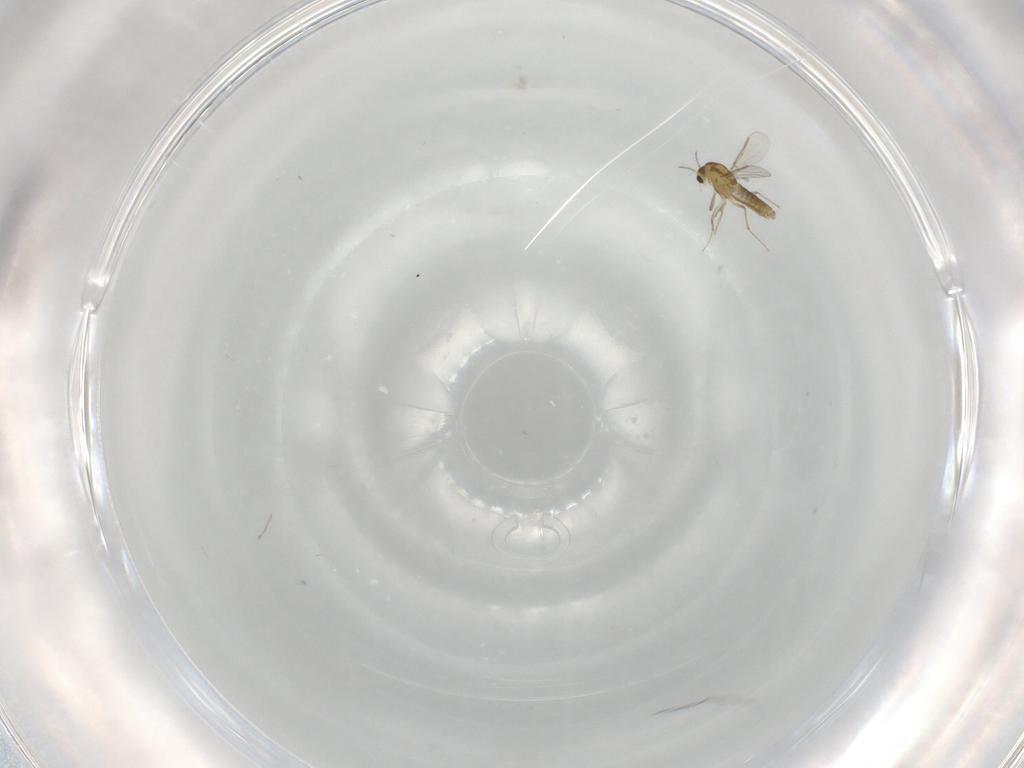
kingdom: Animalia
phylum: Arthropoda
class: Insecta
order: Diptera
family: Chironomidae
